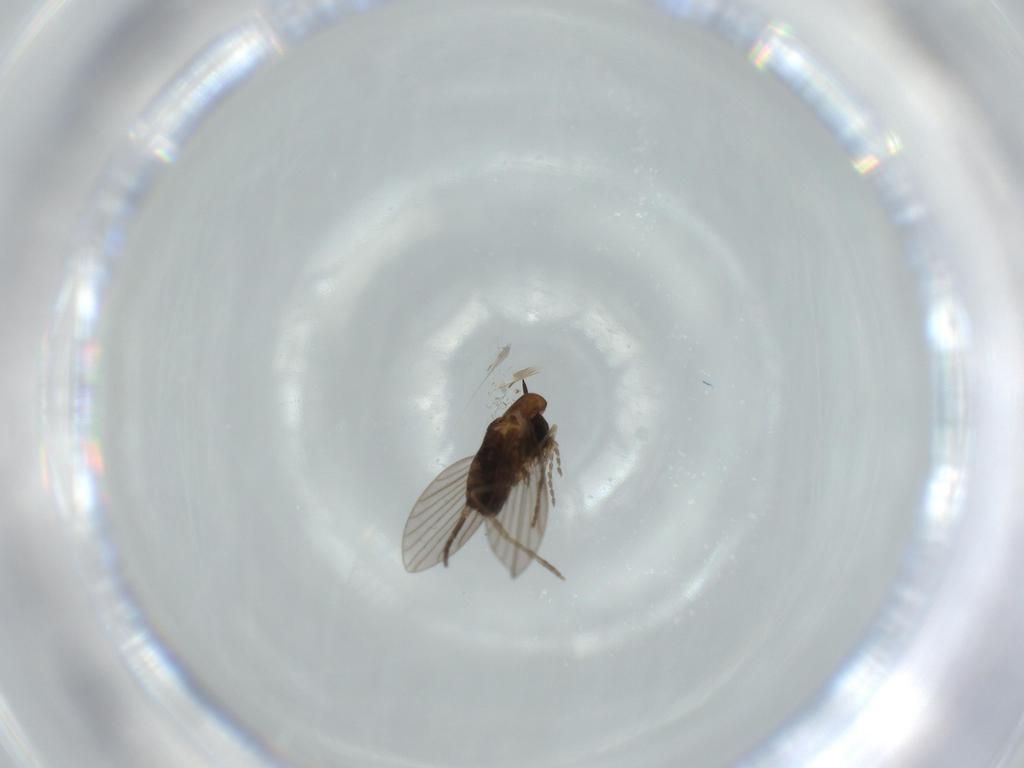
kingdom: Animalia
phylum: Arthropoda
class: Insecta
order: Diptera
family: Psychodidae
